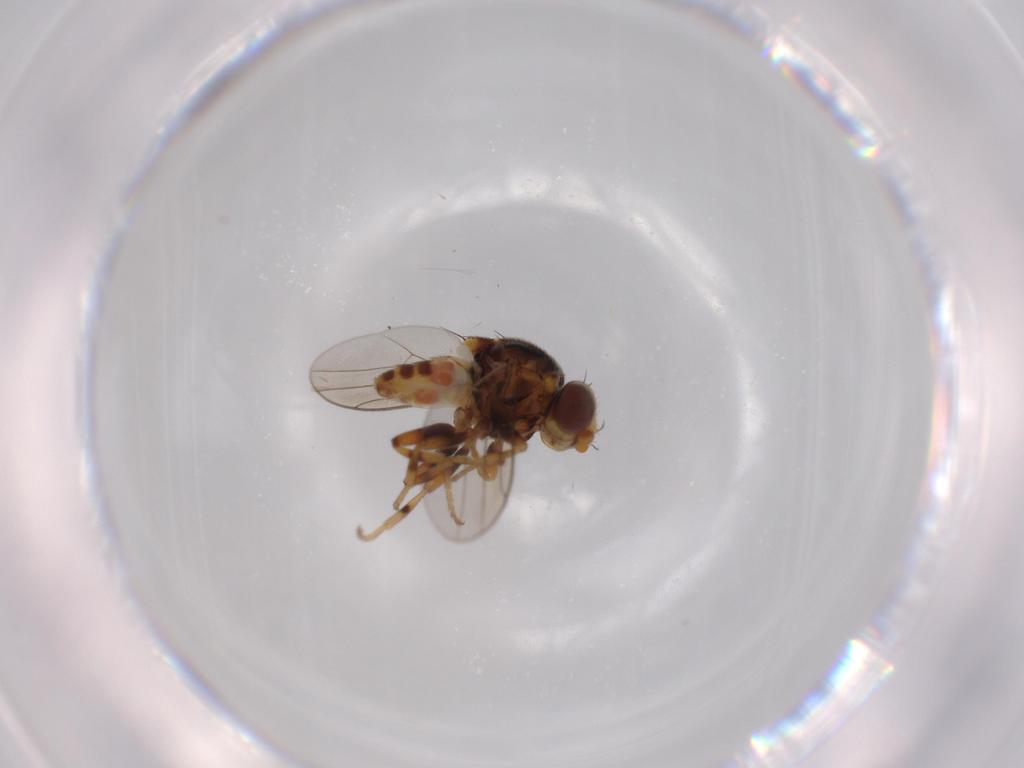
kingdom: Animalia
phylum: Arthropoda
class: Insecta
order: Diptera
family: Chloropidae
